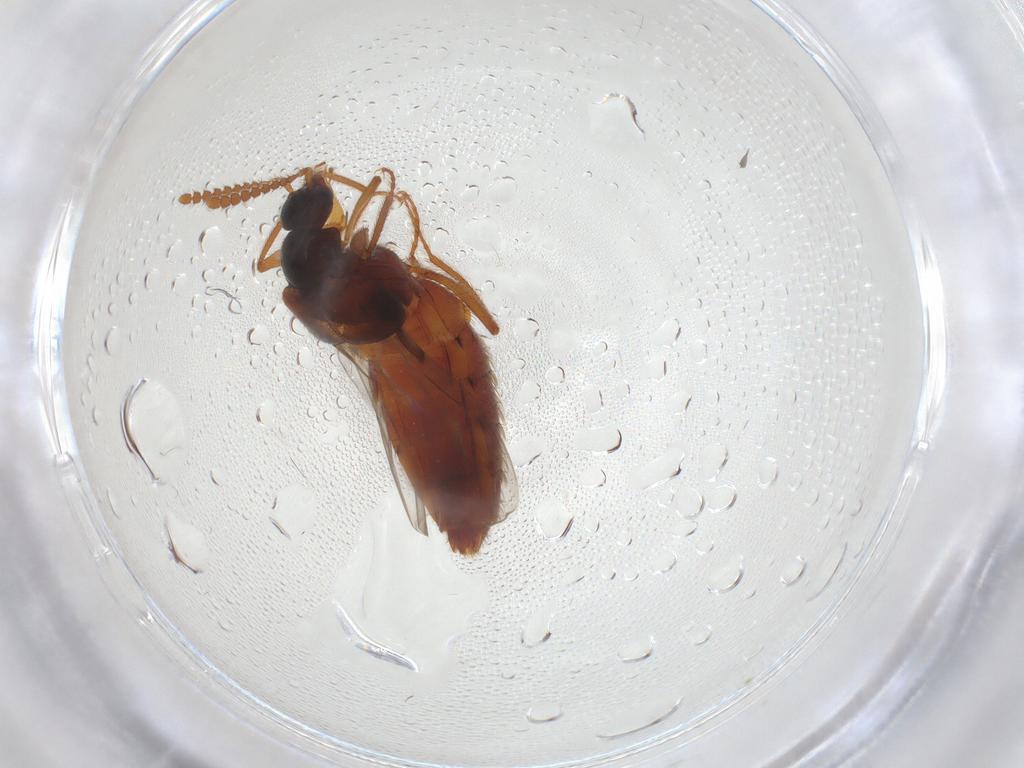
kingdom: Animalia
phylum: Arthropoda
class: Insecta
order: Coleoptera
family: Staphylinidae
